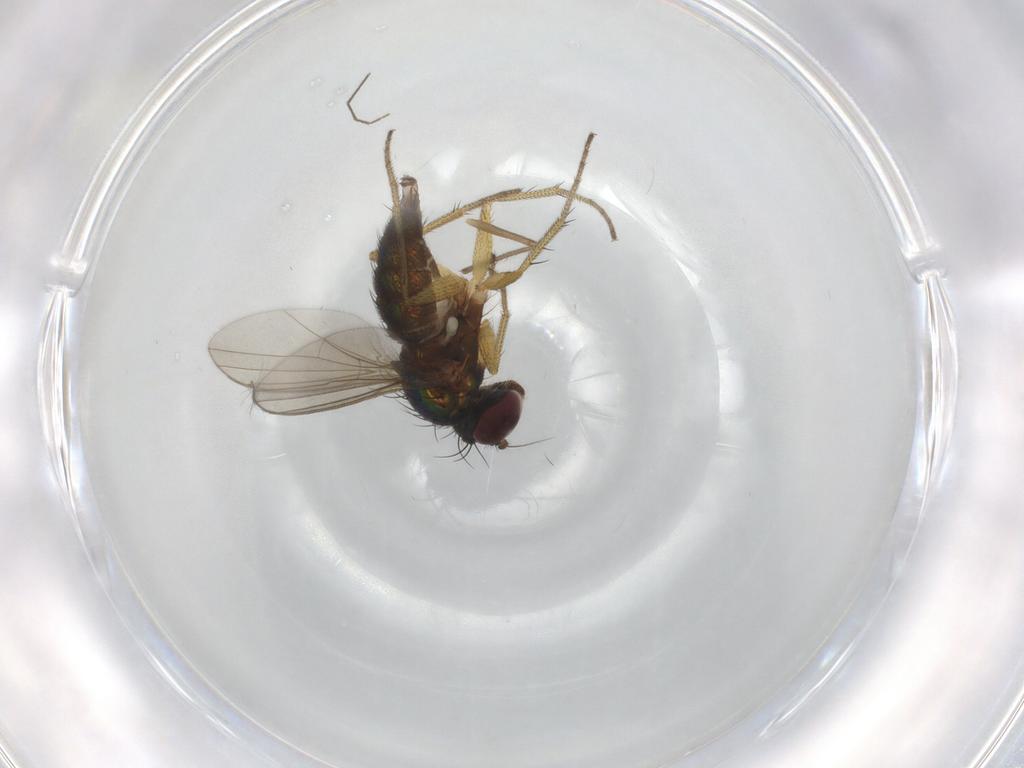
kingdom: Animalia
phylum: Arthropoda
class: Insecta
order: Diptera
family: Chironomidae
